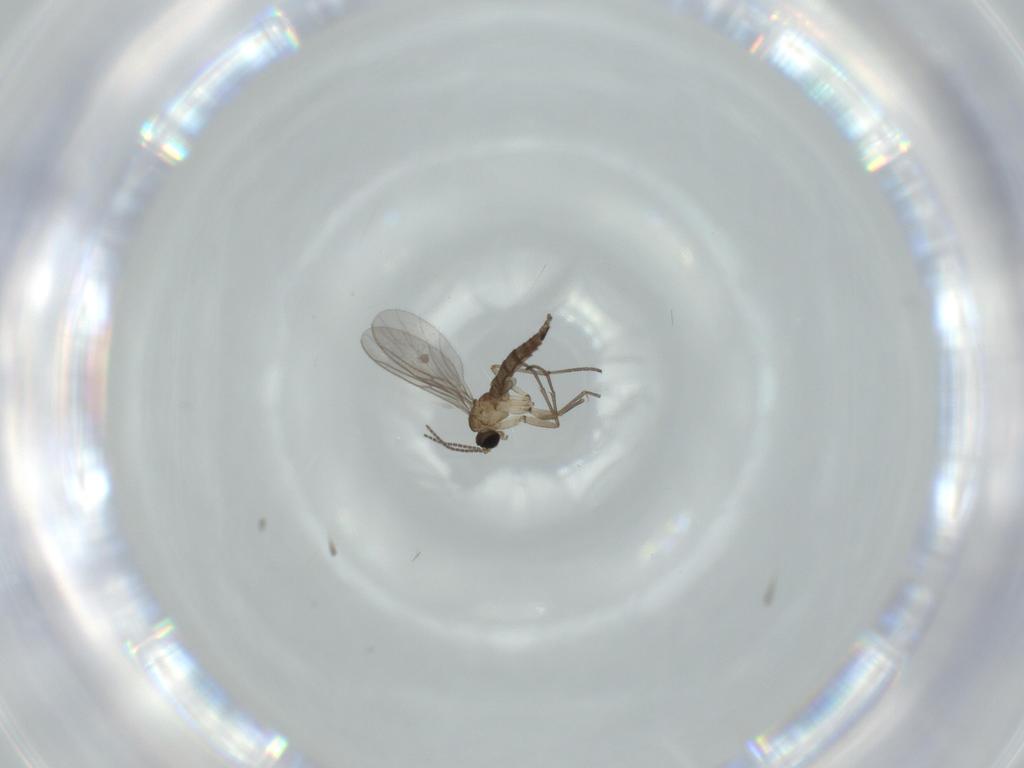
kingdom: Animalia
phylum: Arthropoda
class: Insecta
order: Diptera
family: Sciaridae
